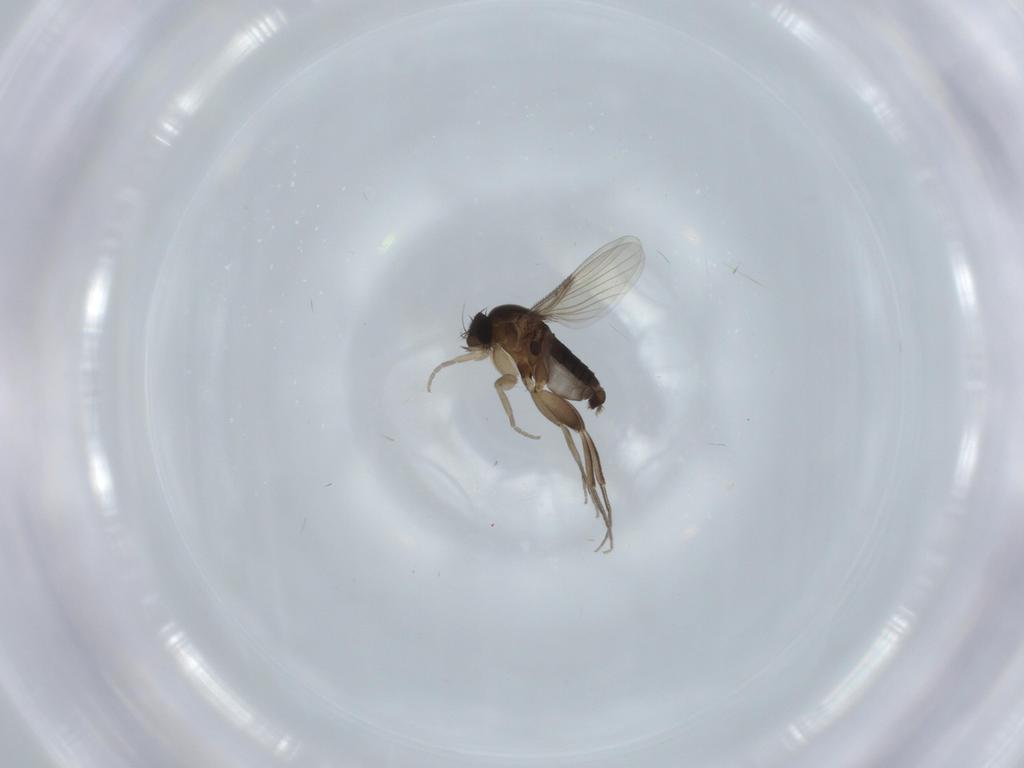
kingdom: Animalia
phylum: Arthropoda
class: Insecta
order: Diptera
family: Phoridae
